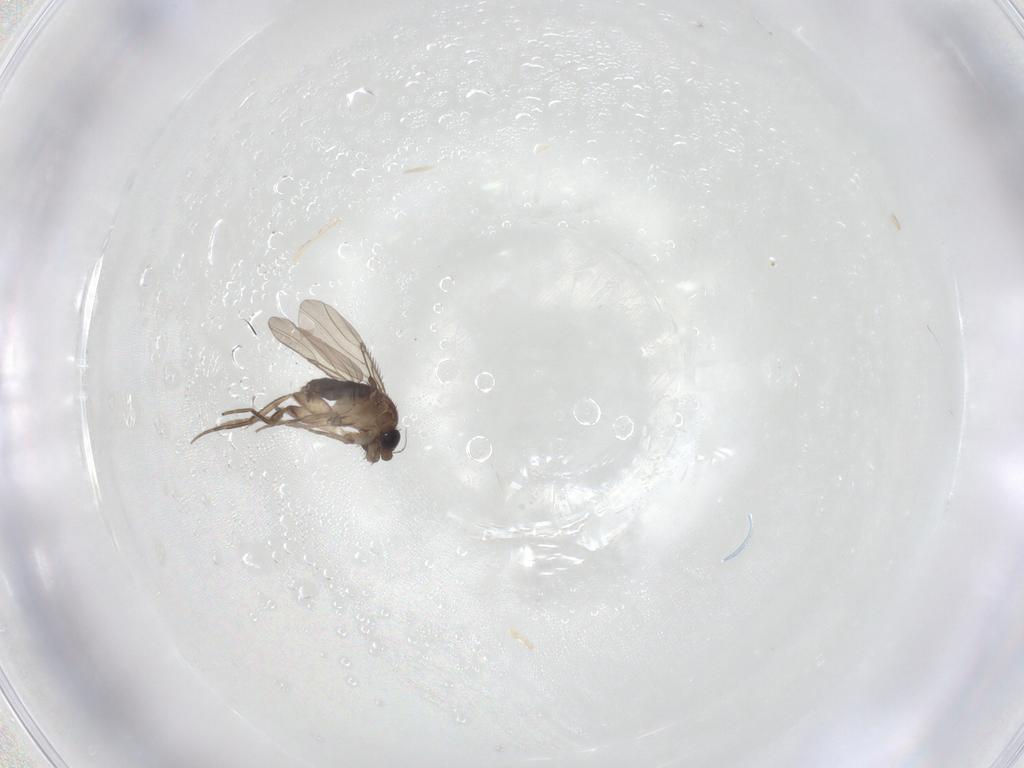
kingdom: Animalia
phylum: Arthropoda
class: Insecta
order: Diptera
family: Phoridae
